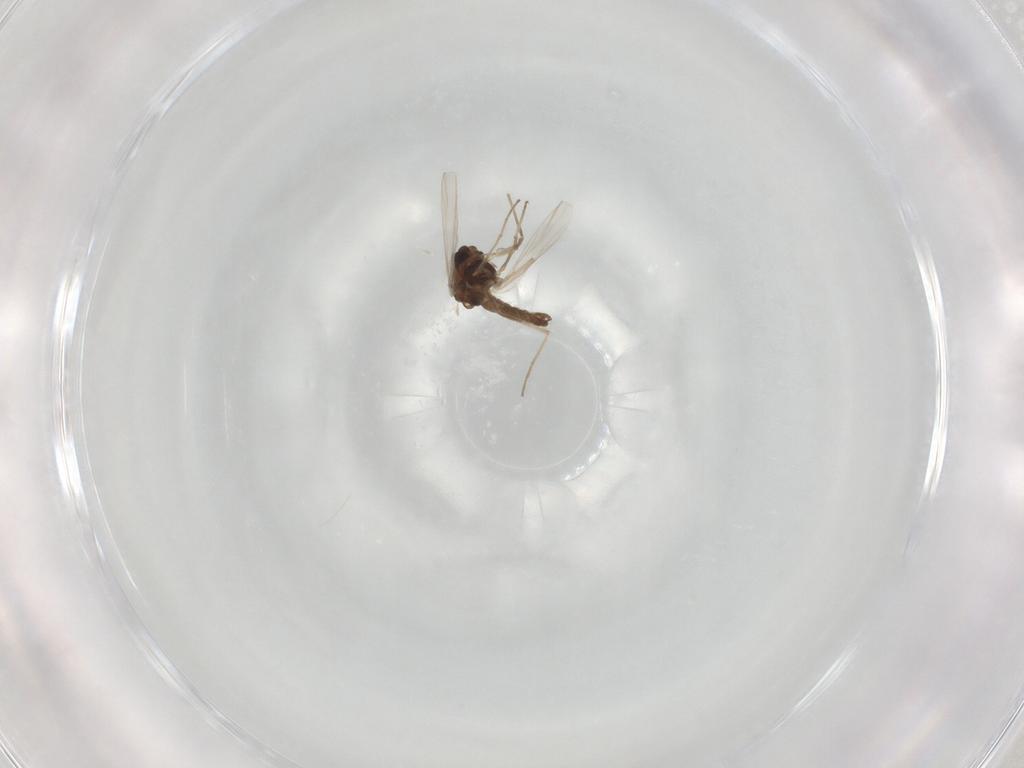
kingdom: Animalia
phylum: Arthropoda
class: Insecta
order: Diptera
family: Chironomidae
